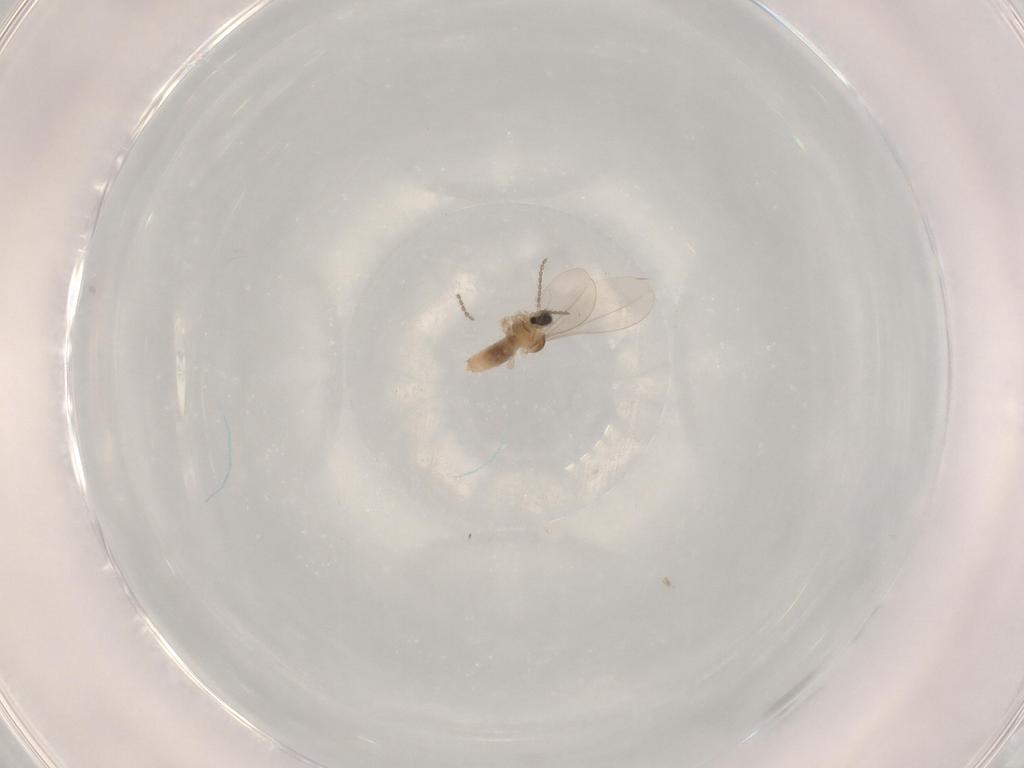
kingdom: Animalia
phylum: Arthropoda
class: Insecta
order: Diptera
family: Cecidomyiidae
